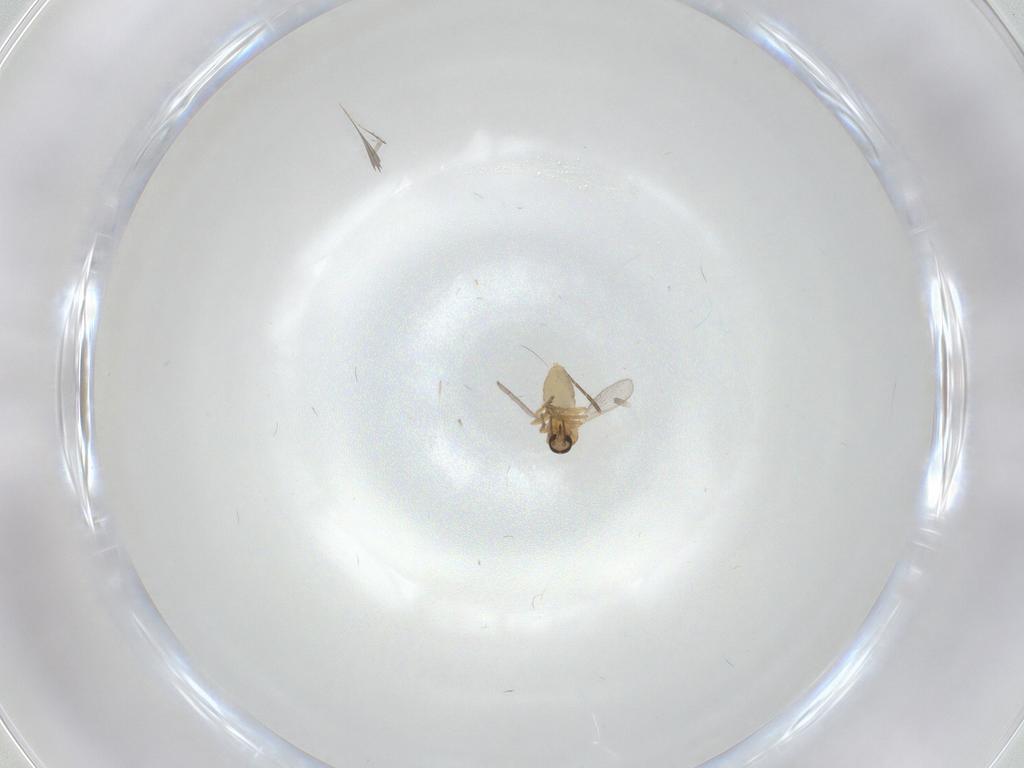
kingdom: Animalia
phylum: Arthropoda
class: Insecta
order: Diptera
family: Ceratopogonidae
